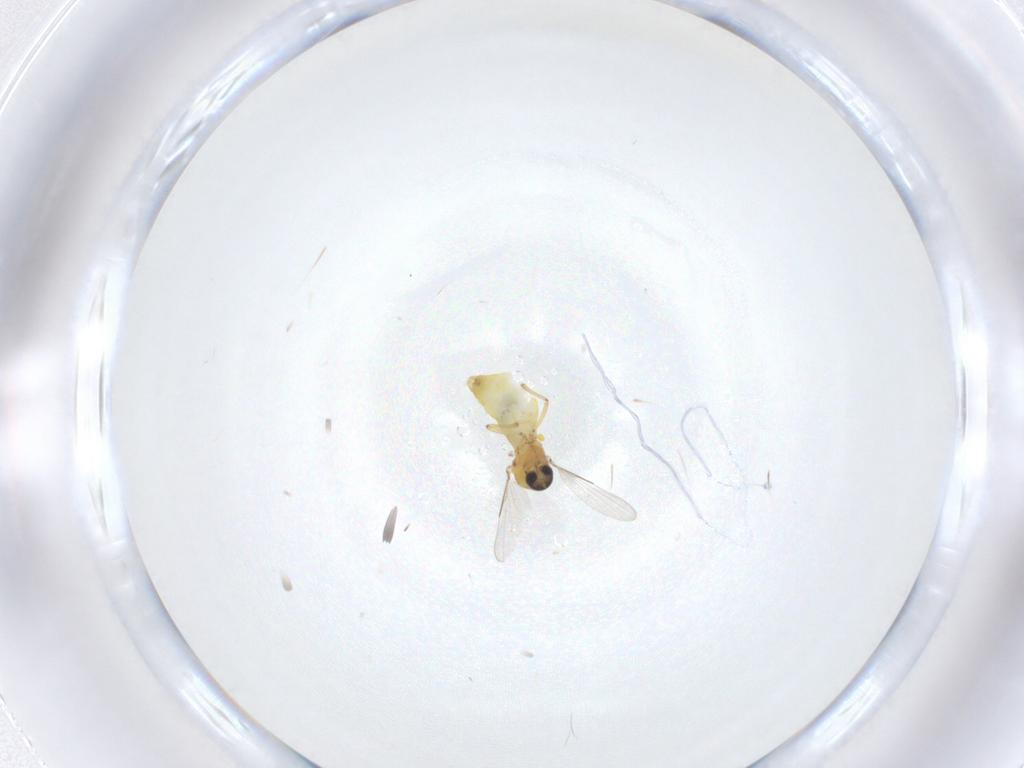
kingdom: Animalia
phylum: Arthropoda
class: Insecta
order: Diptera
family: Ceratopogonidae
